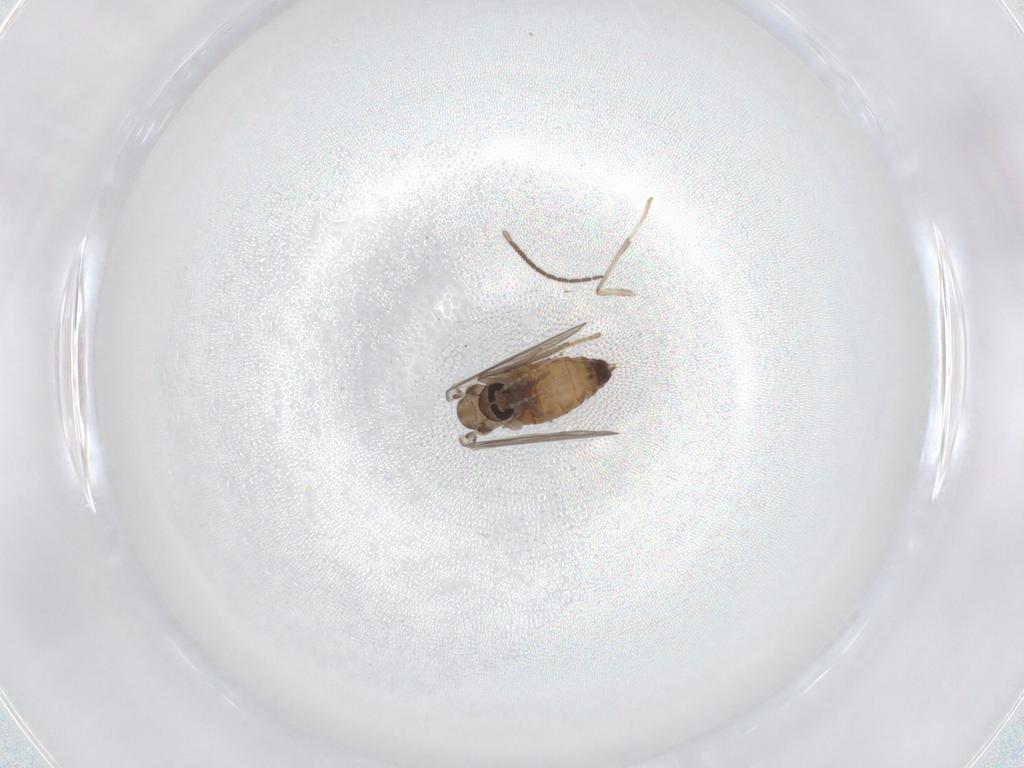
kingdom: Animalia
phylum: Arthropoda
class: Insecta
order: Diptera
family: Psychodidae
